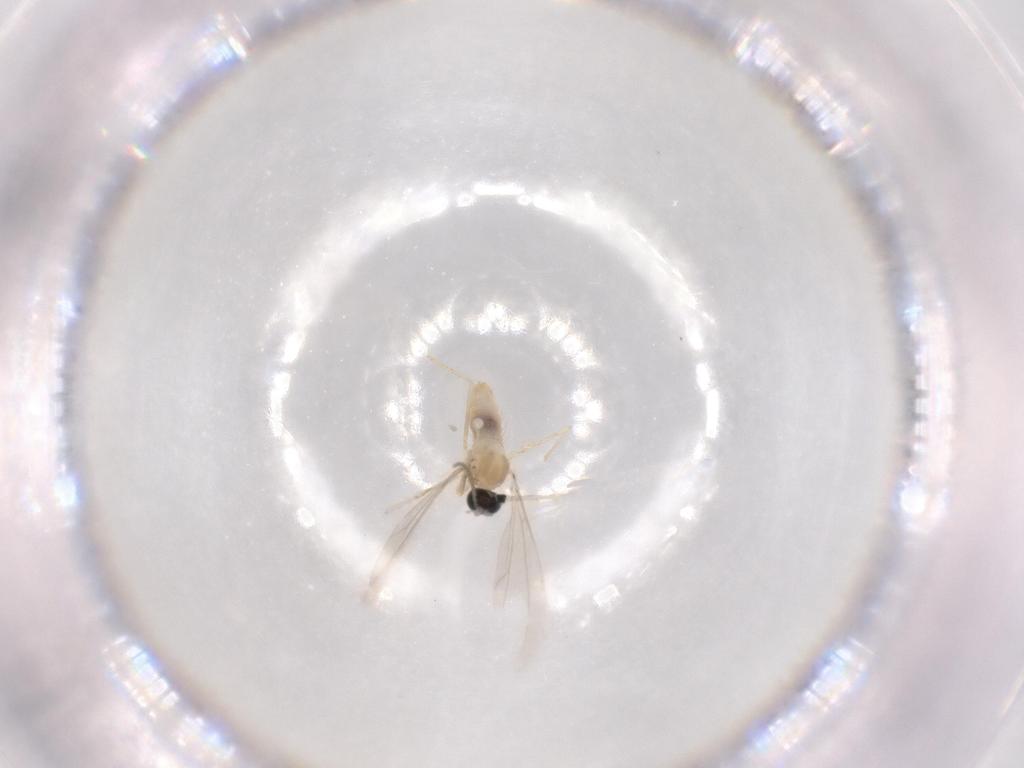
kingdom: Animalia
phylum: Arthropoda
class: Insecta
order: Diptera
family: Cecidomyiidae
